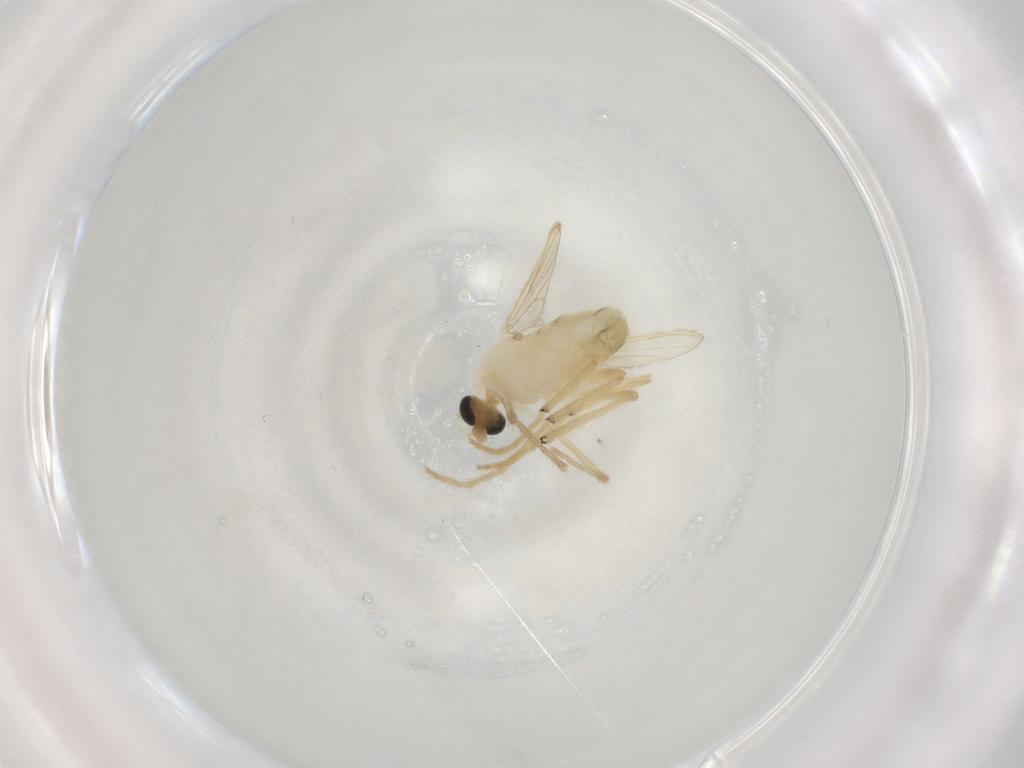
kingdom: Animalia
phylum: Arthropoda
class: Insecta
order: Diptera
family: Chironomidae
